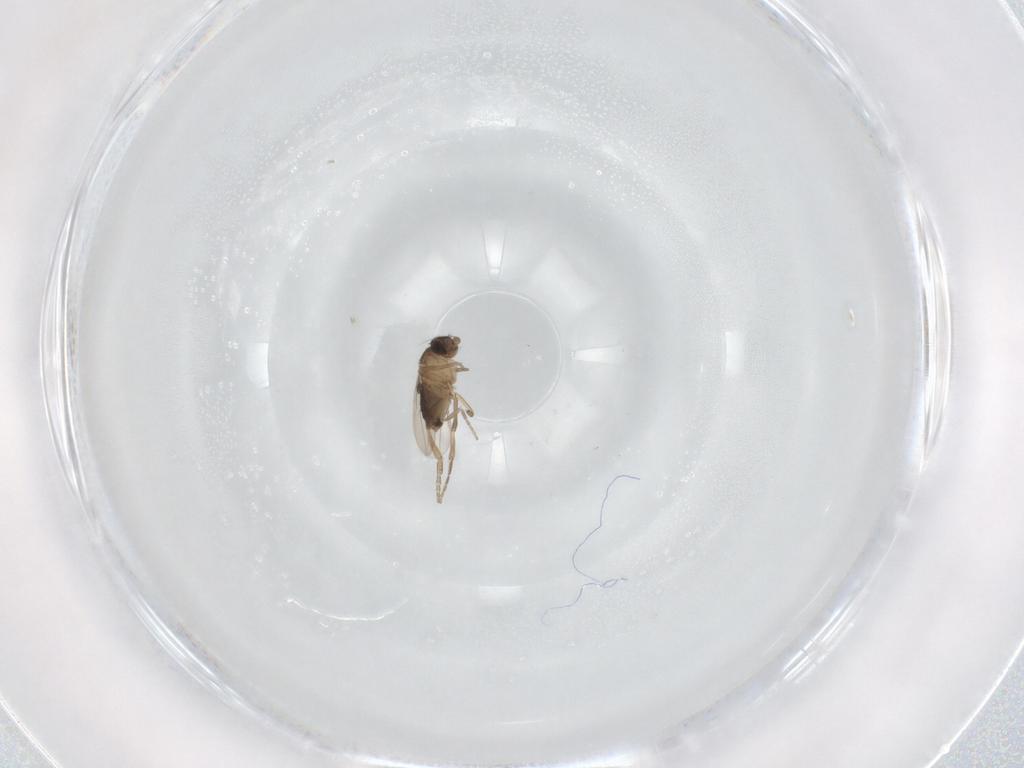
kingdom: Animalia
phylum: Arthropoda
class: Insecta
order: Diptera
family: Phoridae
